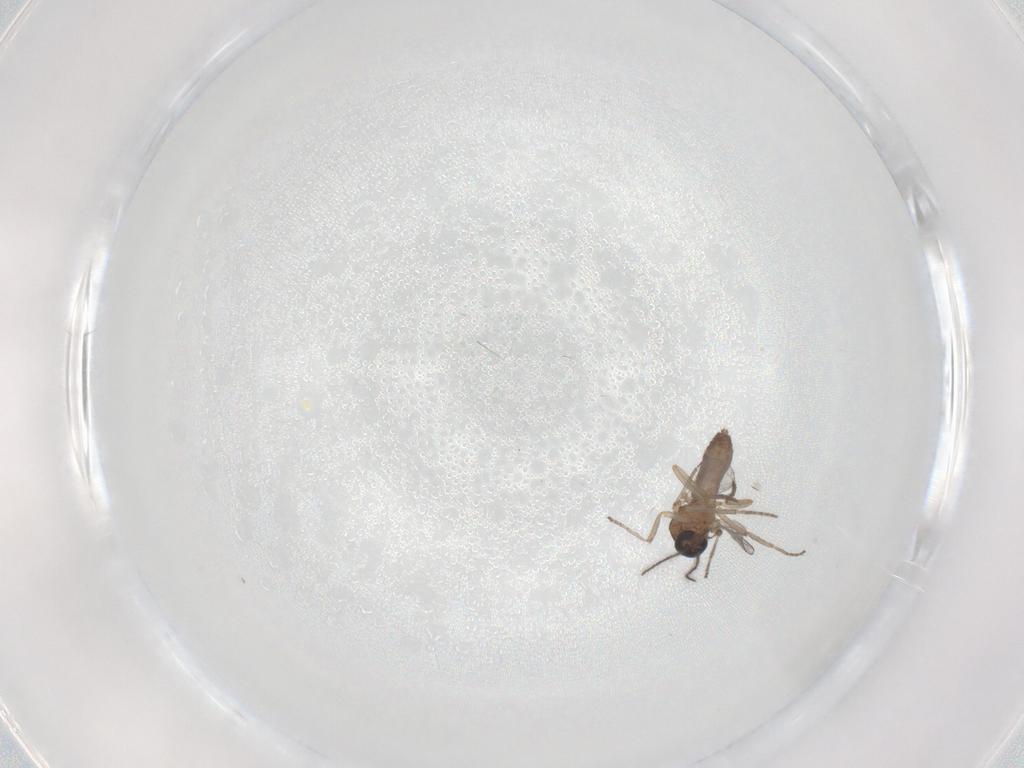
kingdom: Animalia
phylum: Arthropoda
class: Insecta
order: Diptera
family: Ceratopogonidae
